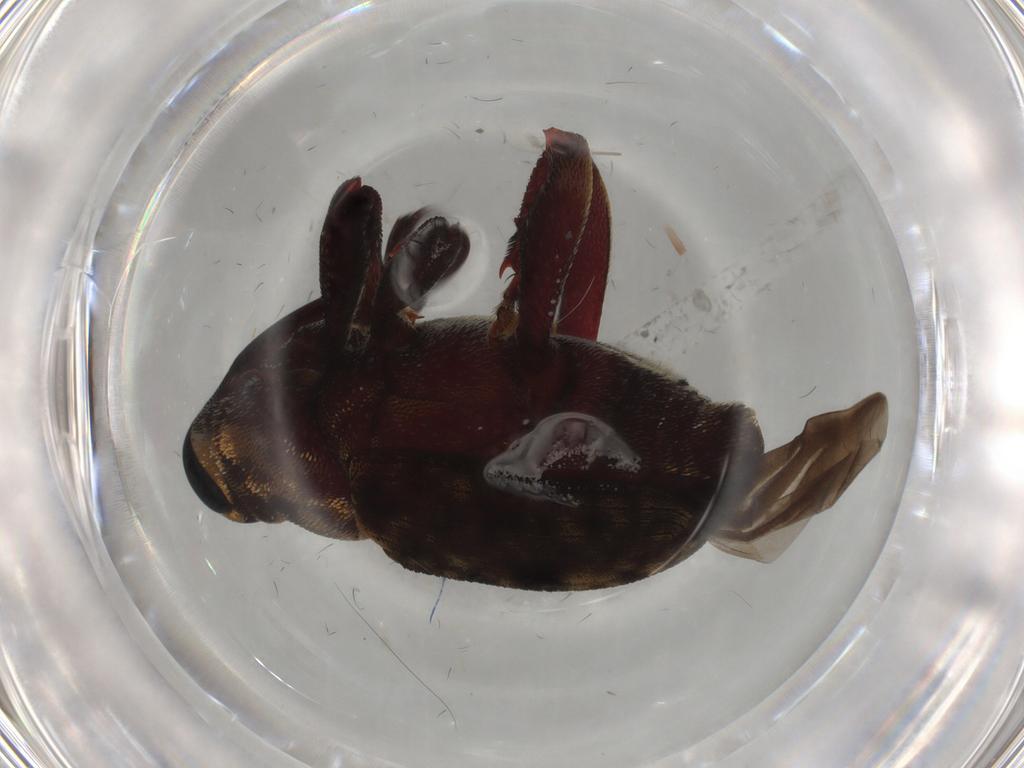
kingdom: Animalia
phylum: Arthropoda
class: Insecta
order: Coleoptera
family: Curculionidae
